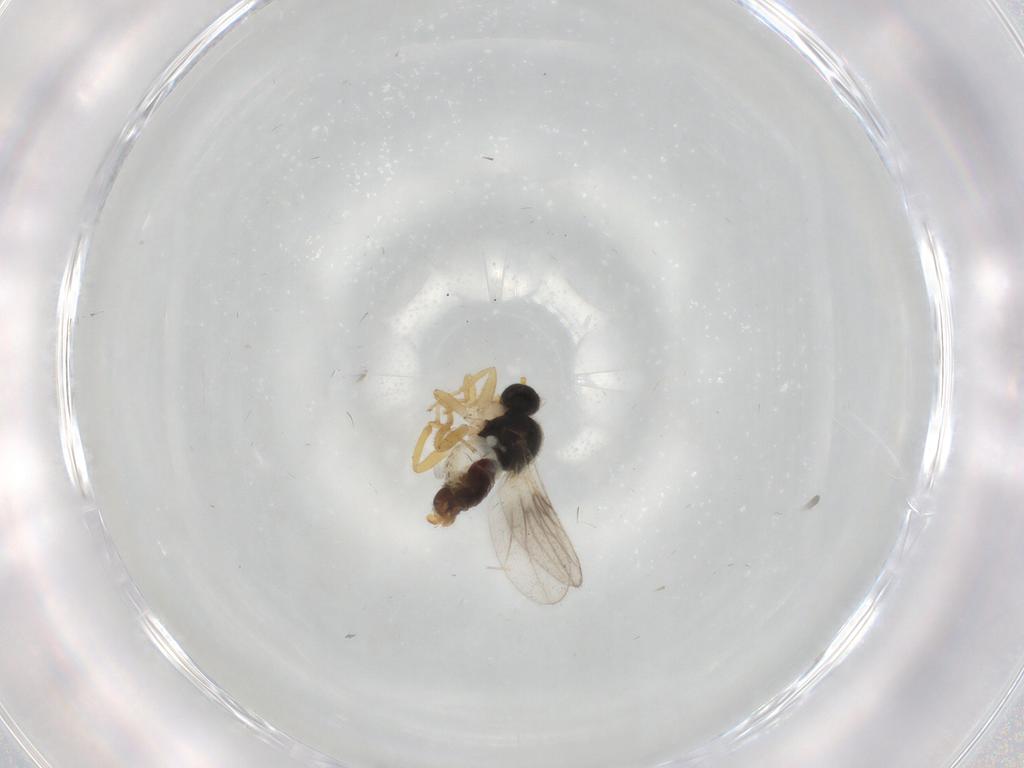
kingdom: Animalia
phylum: Arthropoda
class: Insecta
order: Diptera
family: Hybotidae
